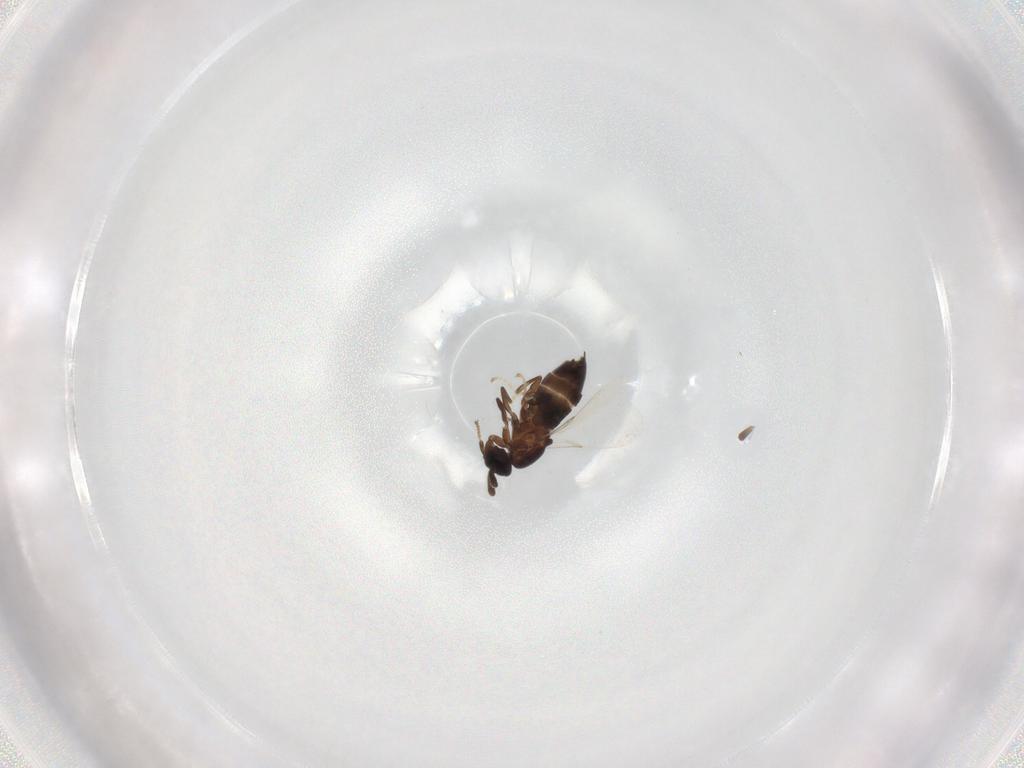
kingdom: Animalia
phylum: Arthropoda
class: Insecta
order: Diptera
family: Scatopsidae
